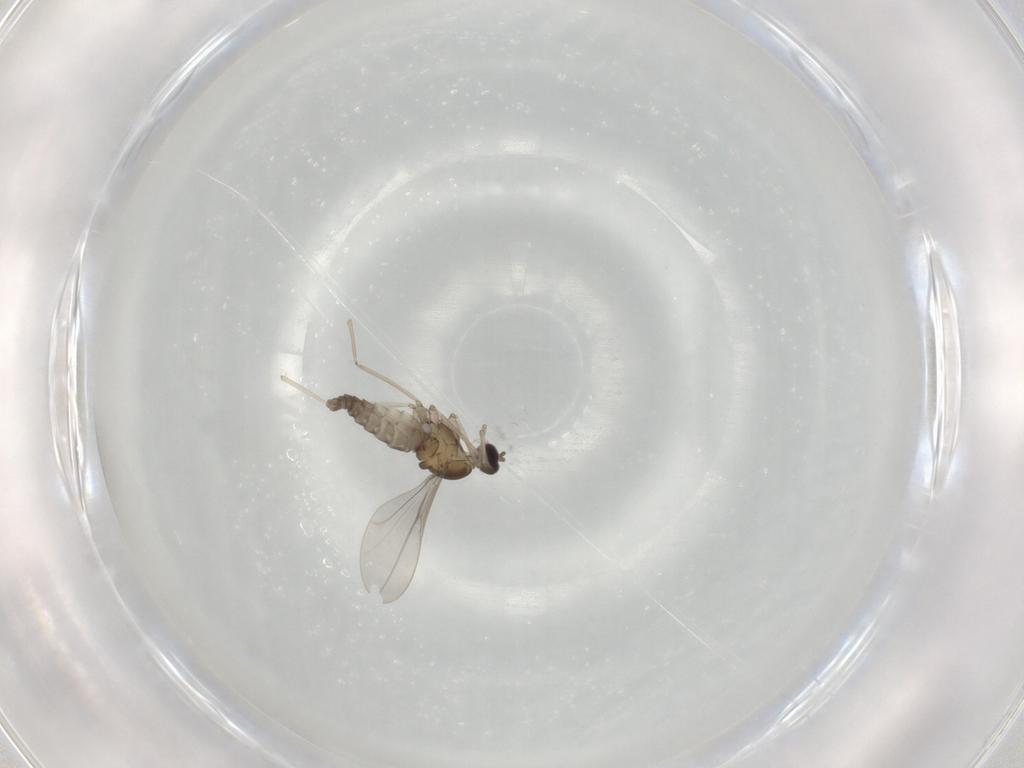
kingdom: Animalia
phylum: Arthropoda
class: Insecta
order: Diptera
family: Cecidomyiidae
